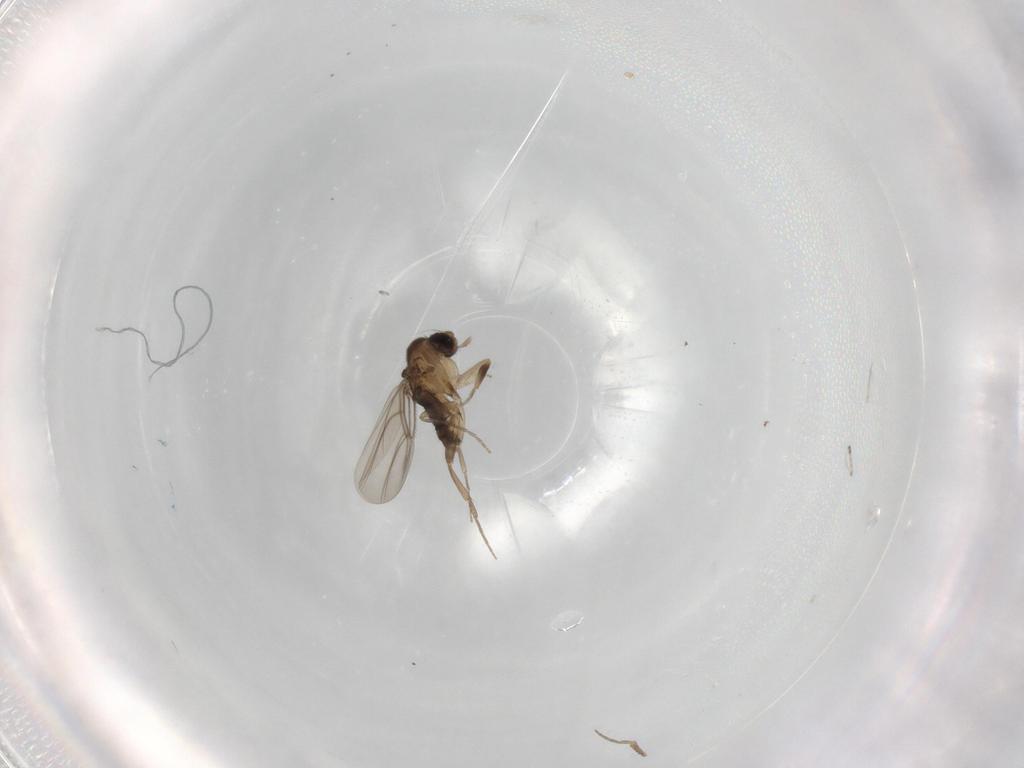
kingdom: Animalia
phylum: Arthropoda
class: Insecta
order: Diptera
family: Phoridae
